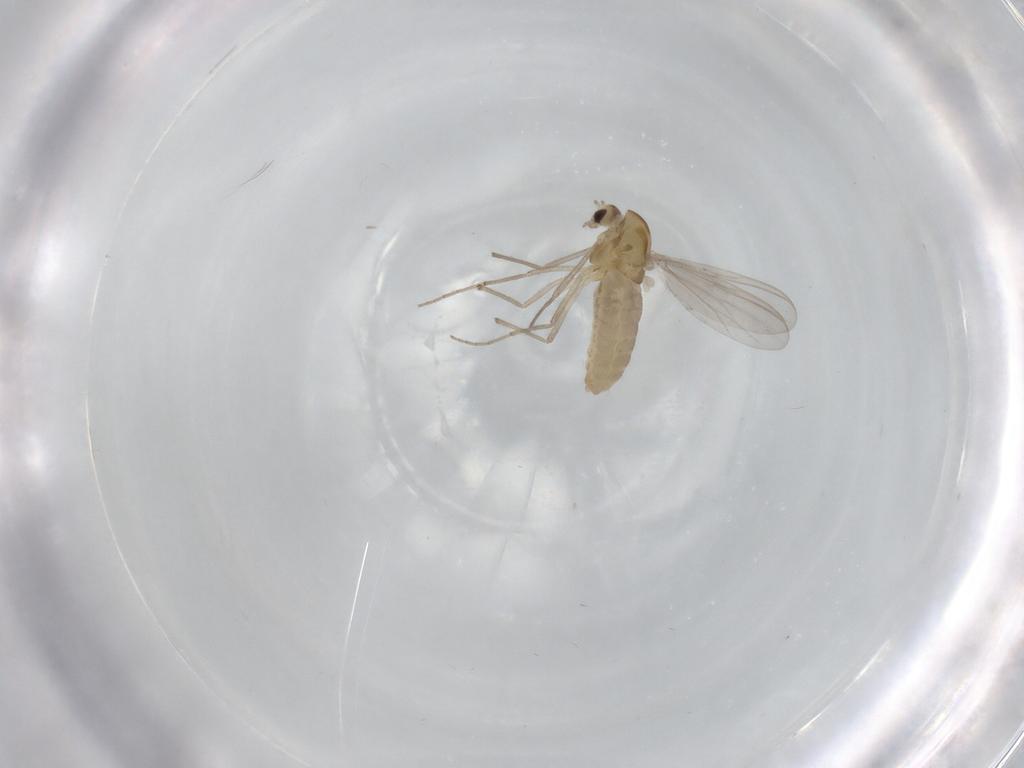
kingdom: Animalia
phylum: Arthropoda
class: Insecta
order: Diptera
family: Chironomidae
